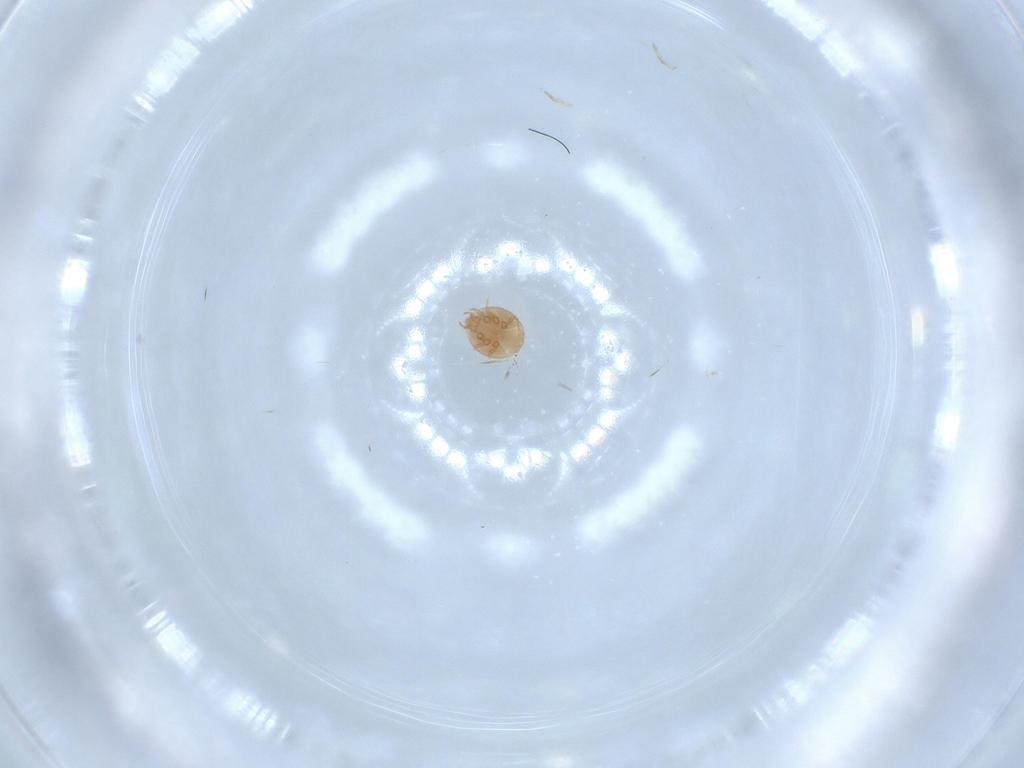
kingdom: Animalia
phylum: Arthropoda
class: Arachnida
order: Mesostigmata
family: Trematuridae
